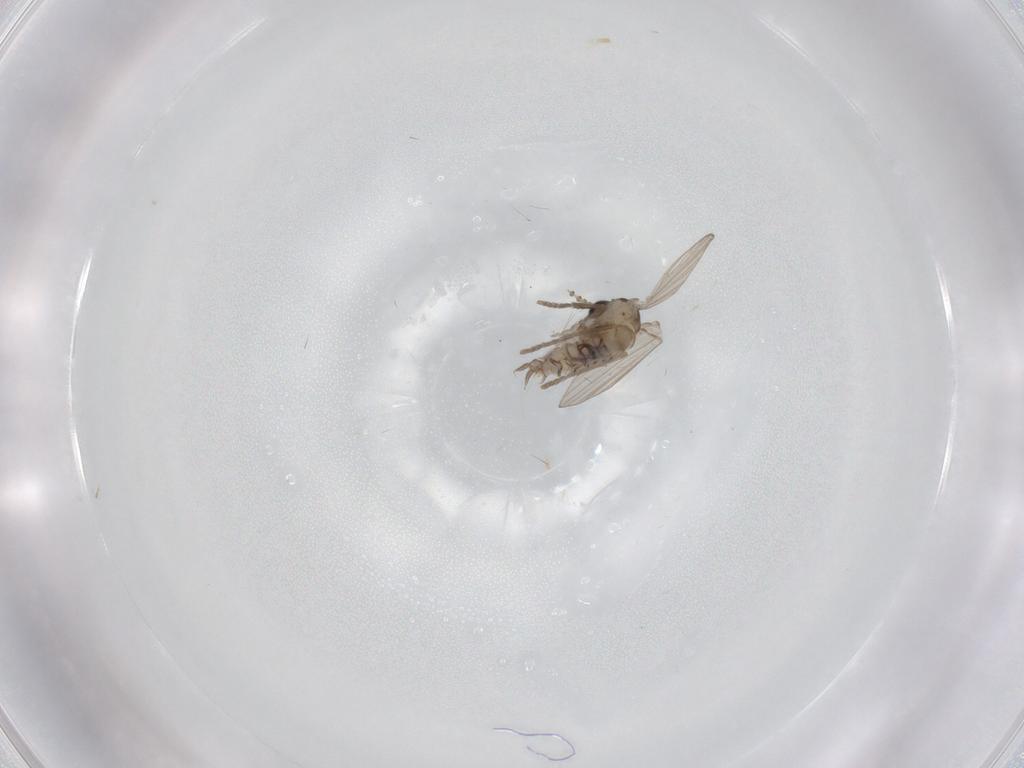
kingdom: Animalia
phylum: Arthropoda
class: Insecta
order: Diptera
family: Psychodidae
